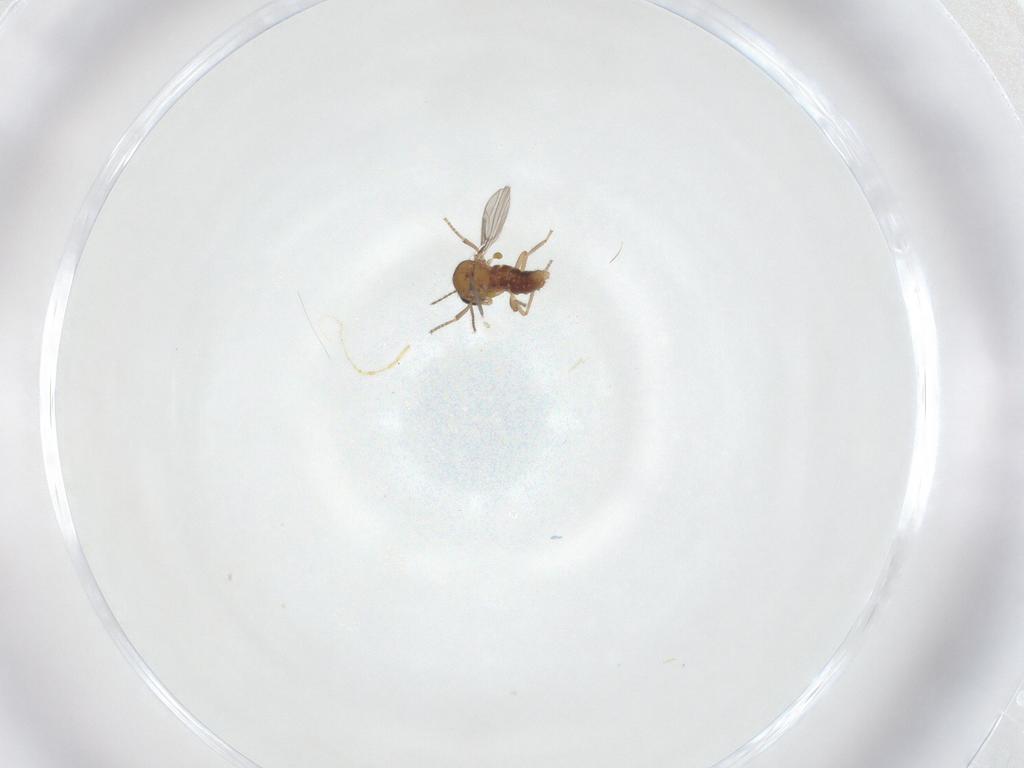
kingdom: Animalia
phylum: Arthropoda
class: Insecta
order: Diptera
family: Ceratopogonidae
